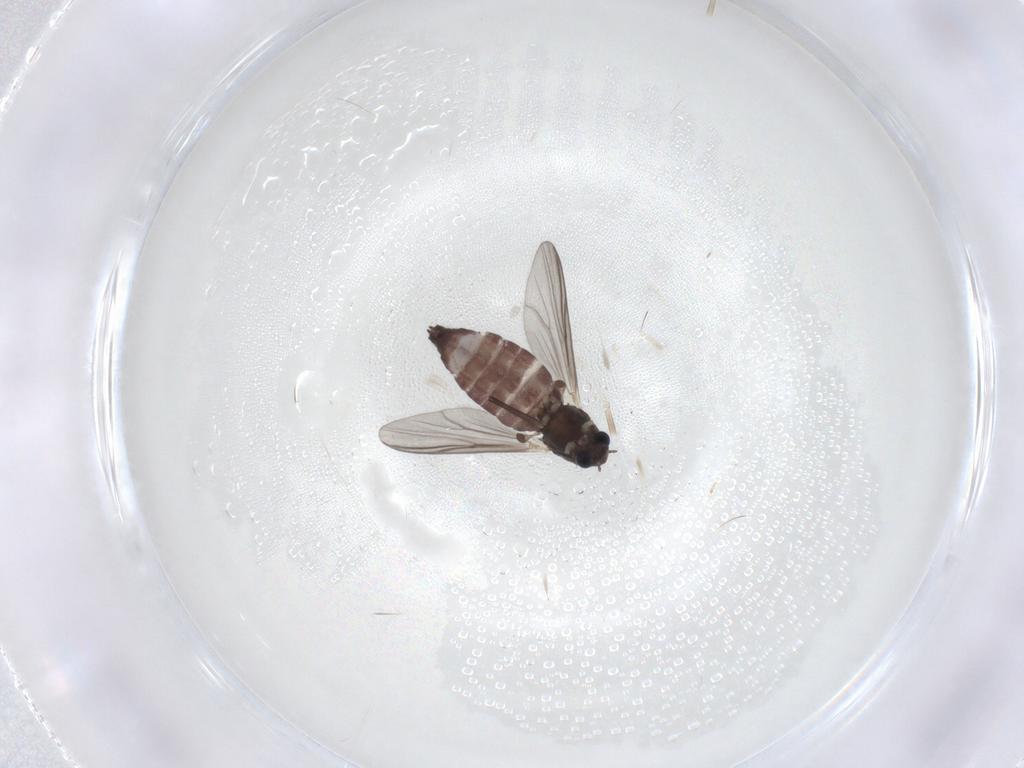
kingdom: Animalia
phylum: Arthropoda
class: Insecta
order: Diptera
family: Chironomidae
